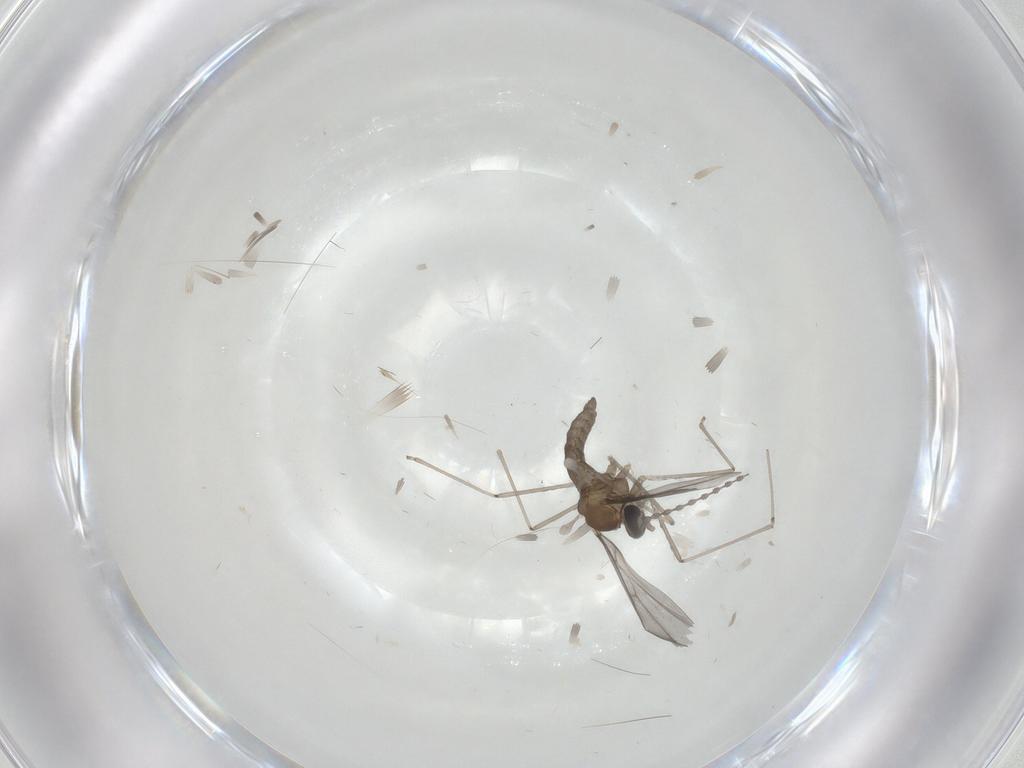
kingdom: Animalia
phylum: Arthropoda
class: Insecta
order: Diptera
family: Cecidomyiidae
